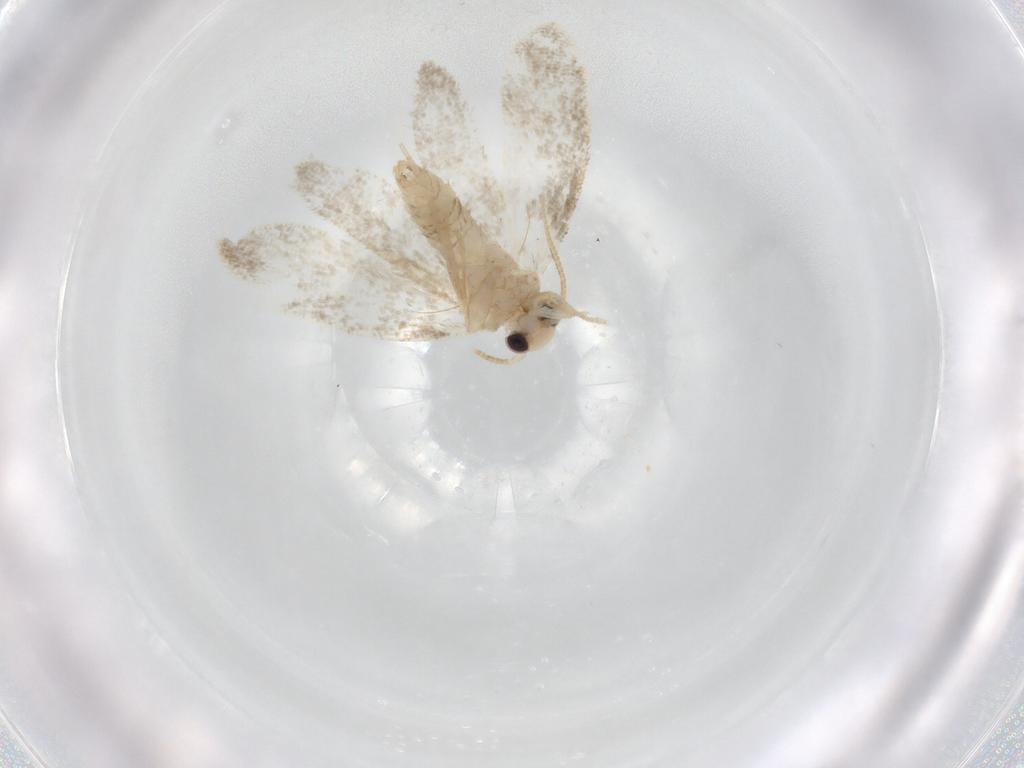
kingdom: Animalia
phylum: Arthropoda
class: Insecta
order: Lepidoptera
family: Psychidae
